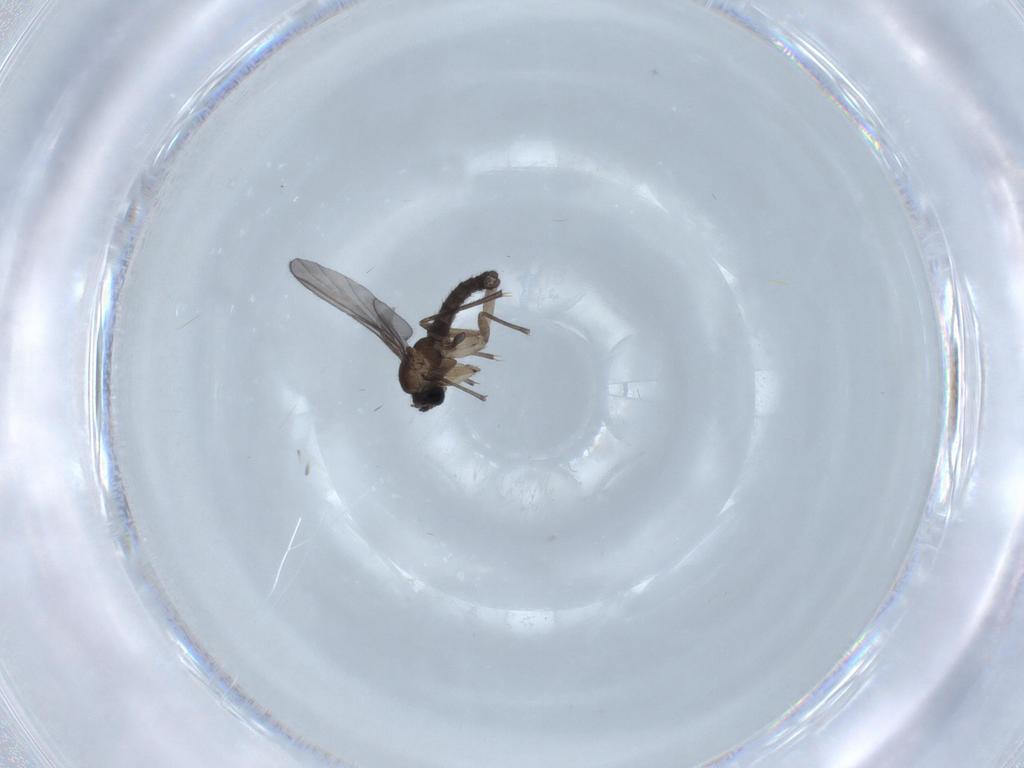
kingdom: Animalia
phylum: Arthropoda
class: Insecta
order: Diptera
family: Sciaridae
